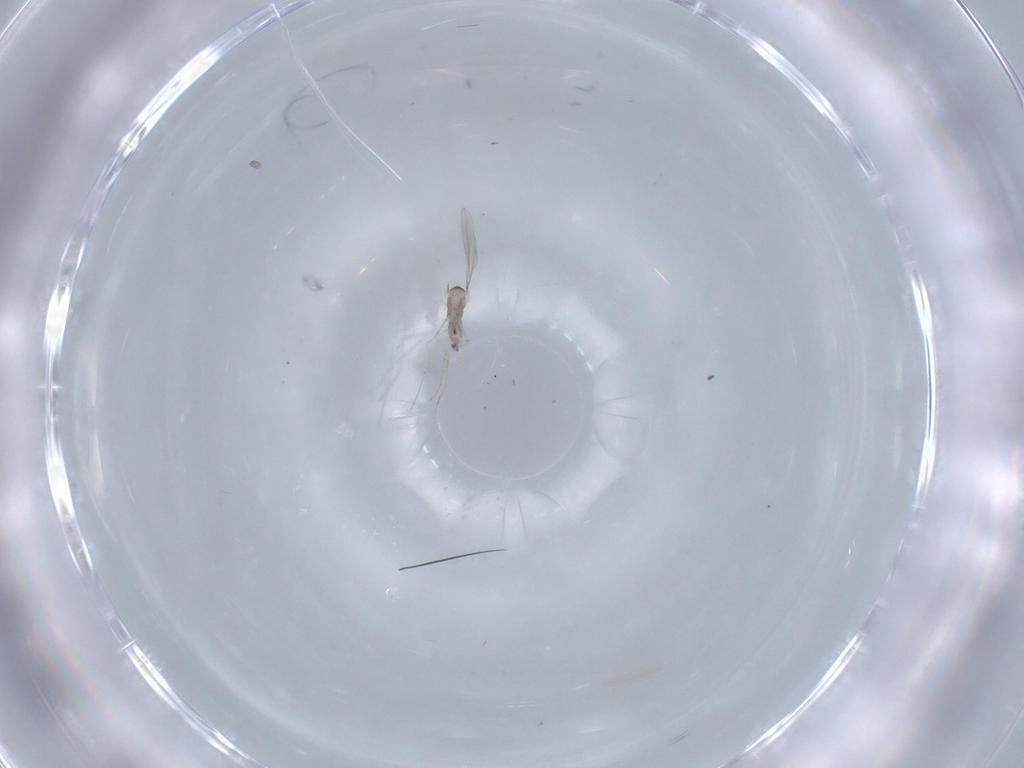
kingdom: Animalia
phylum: Arthropoda
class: Insecta
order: Diptera
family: Cecidomyiidae
